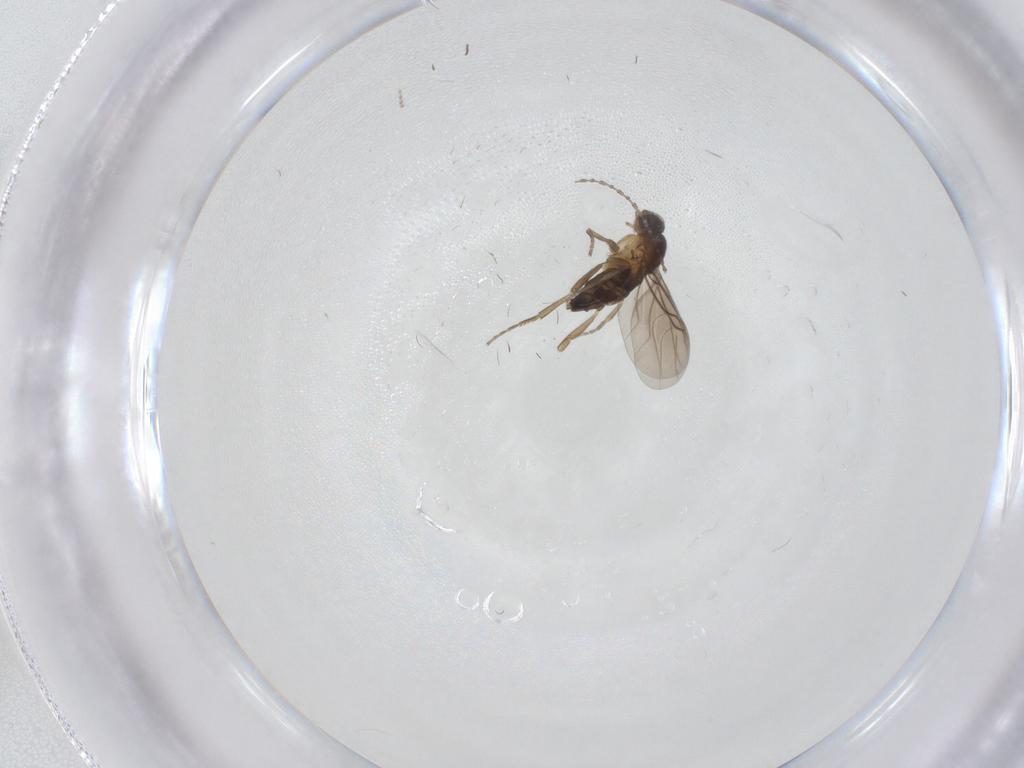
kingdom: Animalia
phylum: Arthropoda
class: Insecta
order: Diptera
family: Cecidomyiidae
